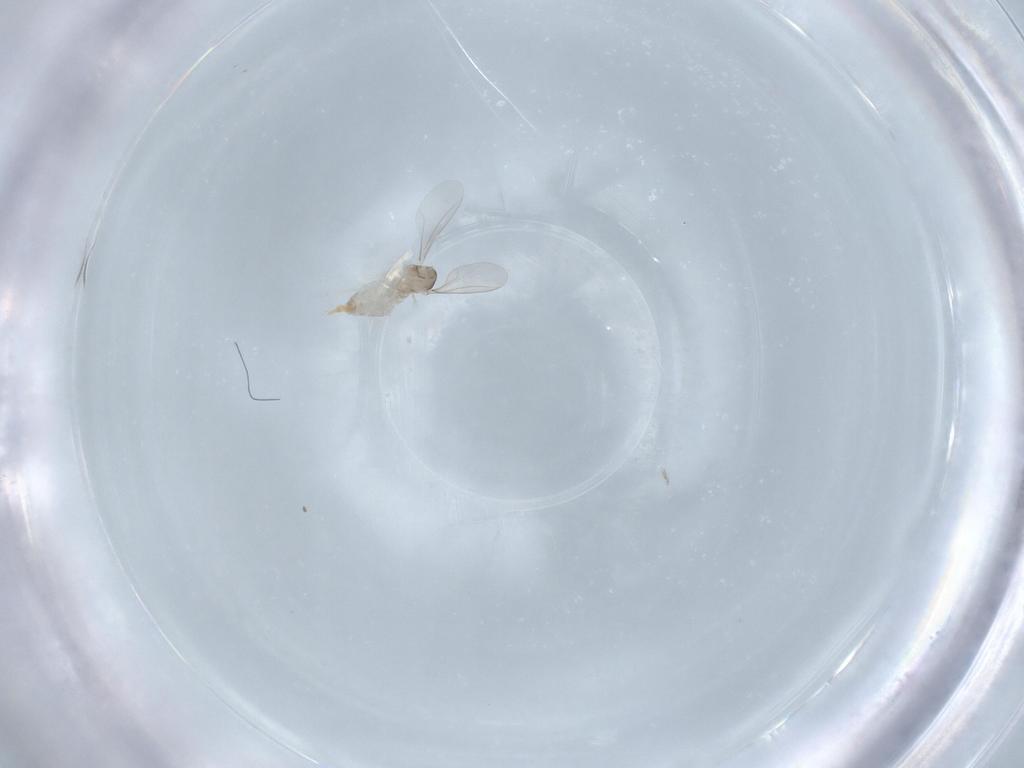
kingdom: Animalia
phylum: Arthropoda
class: Insecta
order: Diptera
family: Cecidomyiidae
